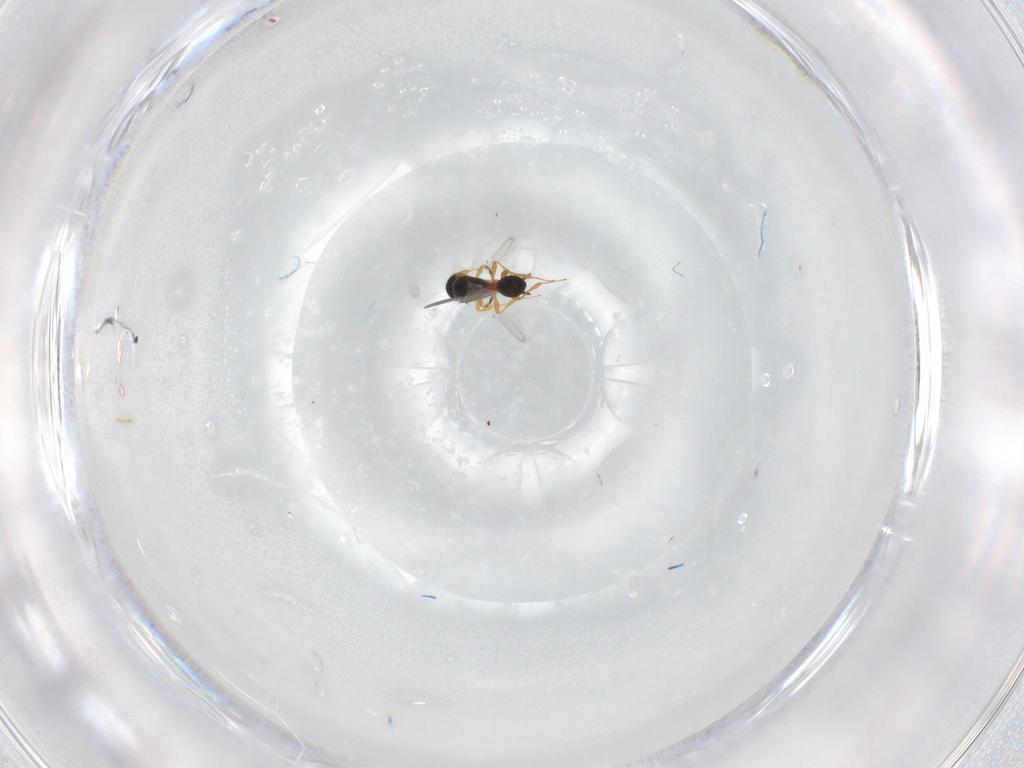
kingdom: Animalia
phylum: Arthropoda
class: Insecta
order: Hymenoptera
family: Platygastridae
